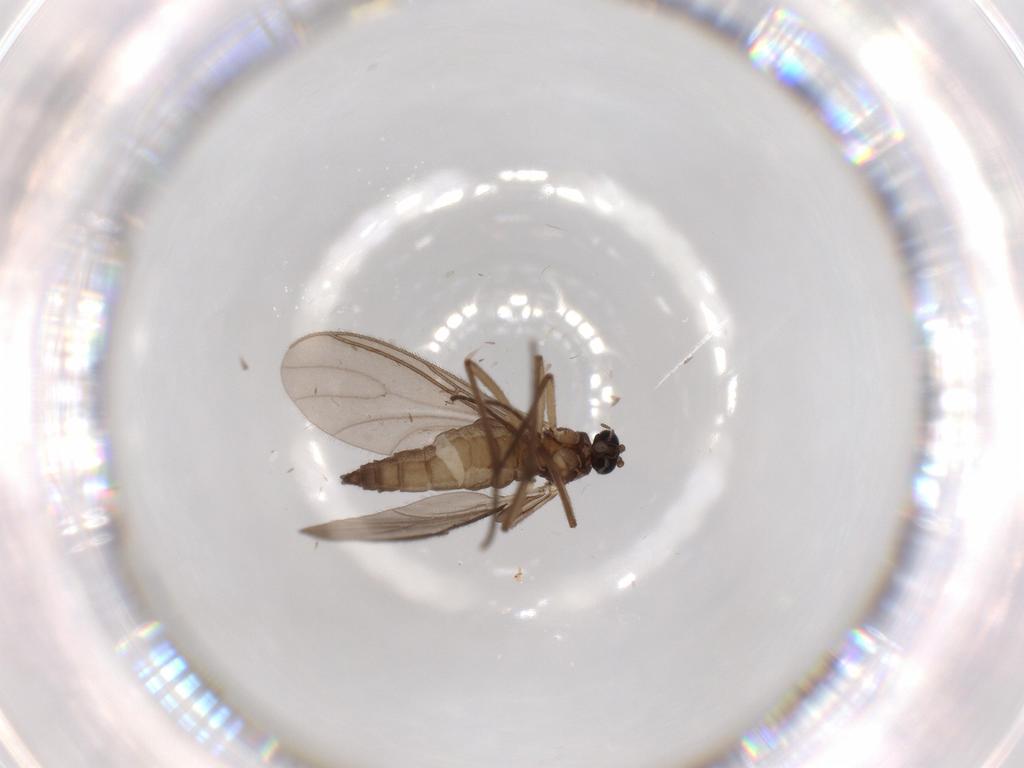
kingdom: Animalia
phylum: Arthropoda
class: Insecta
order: Diptera
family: Sciaridae
